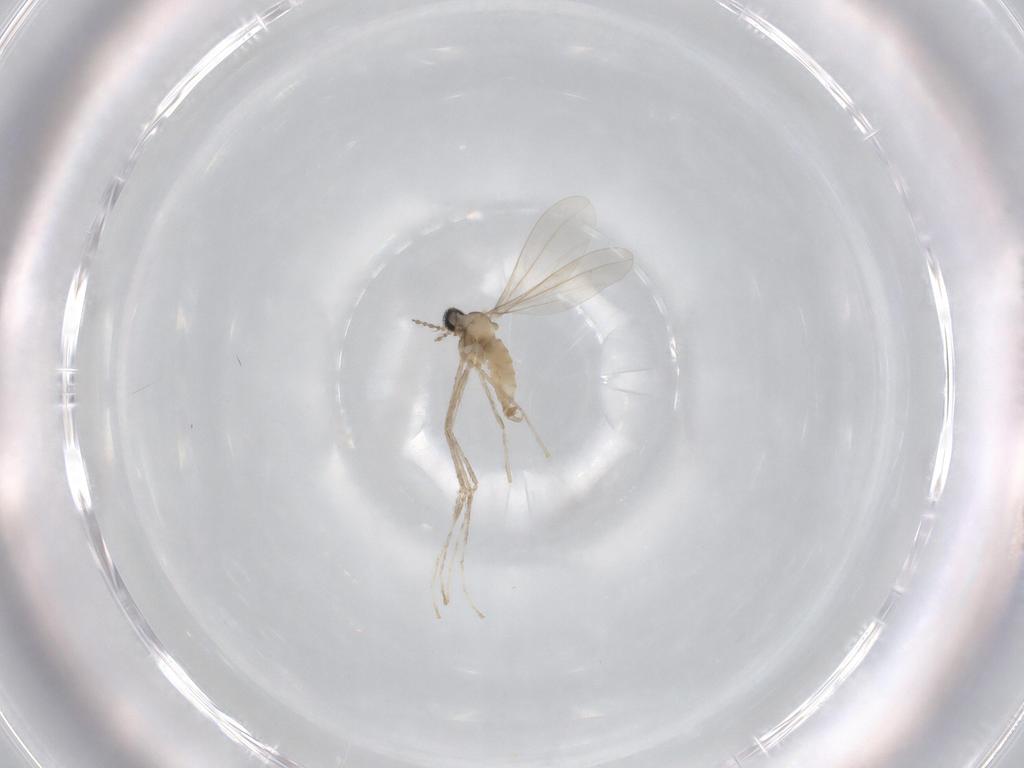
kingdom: Animalia
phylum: Arthropoda
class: Insecta
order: Diptera
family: Cecidomyiidae
